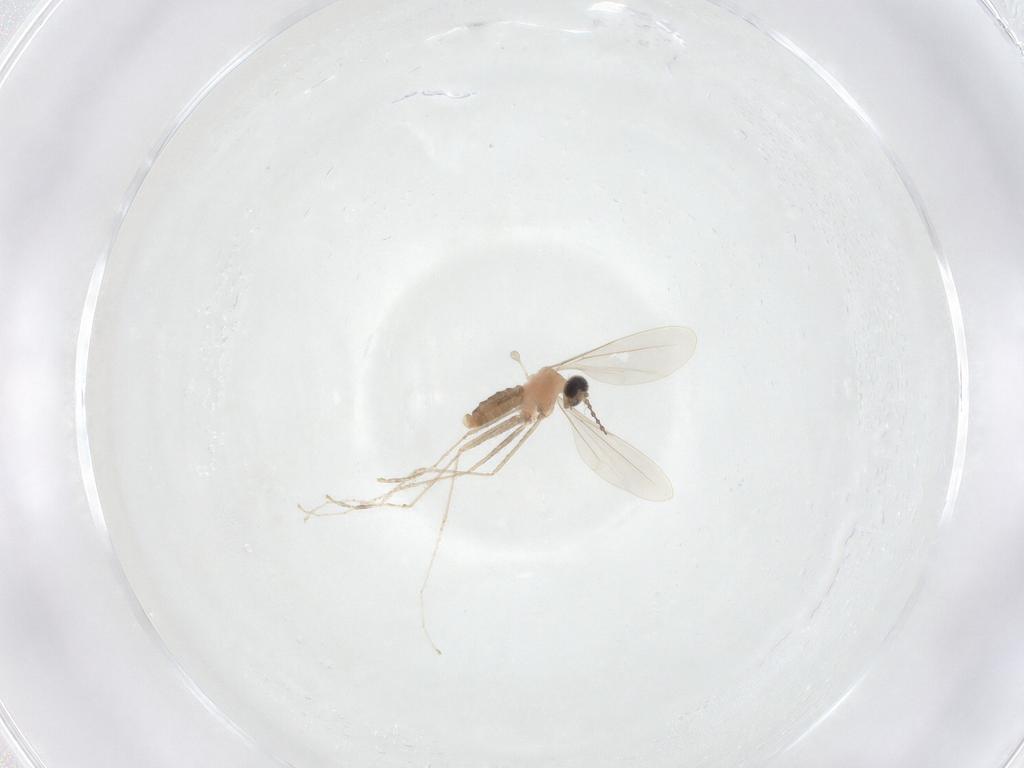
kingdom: Animalia
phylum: Arthropoda
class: Insecta
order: Diptera
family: Cecidomyiidae
